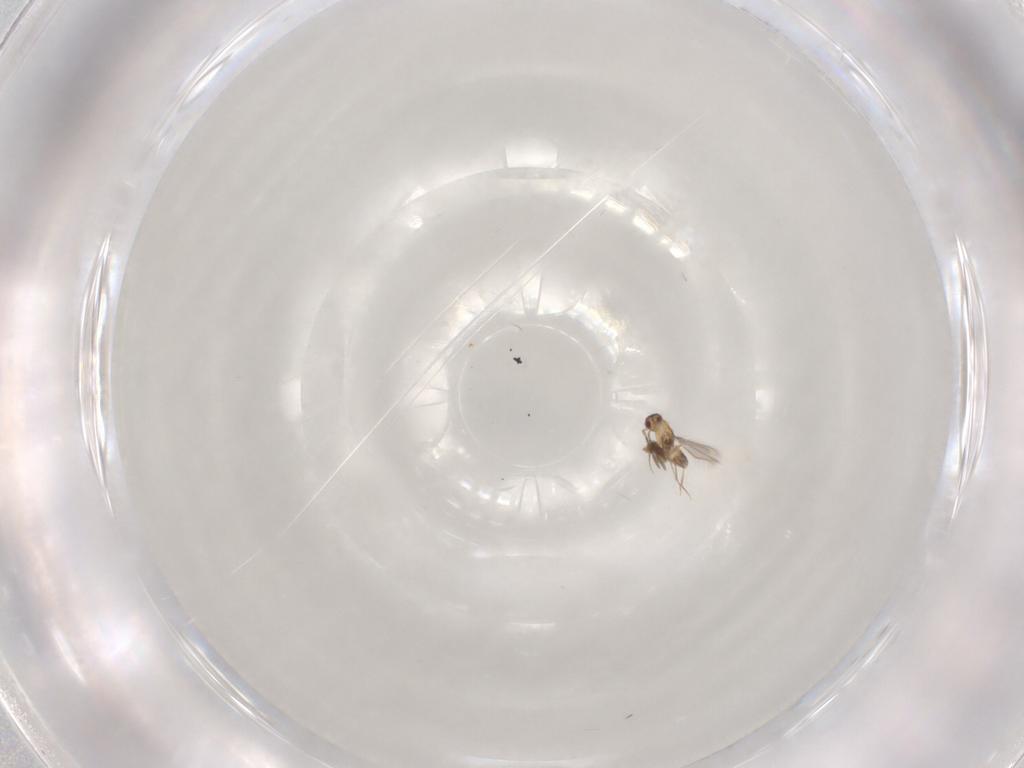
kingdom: Animalia
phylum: Arthropoda
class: Insecta
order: Hymenoptera
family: Mymaridae
